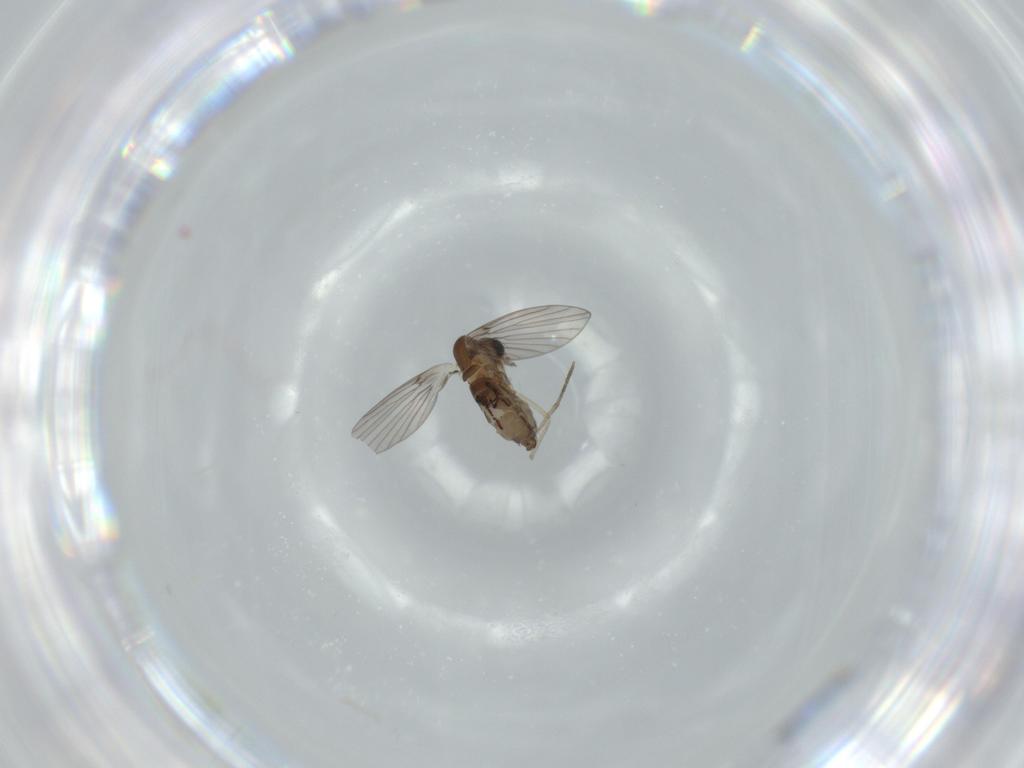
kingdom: Animalia
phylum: Arthropoda
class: Insecta
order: Diptera
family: Psychodidae
